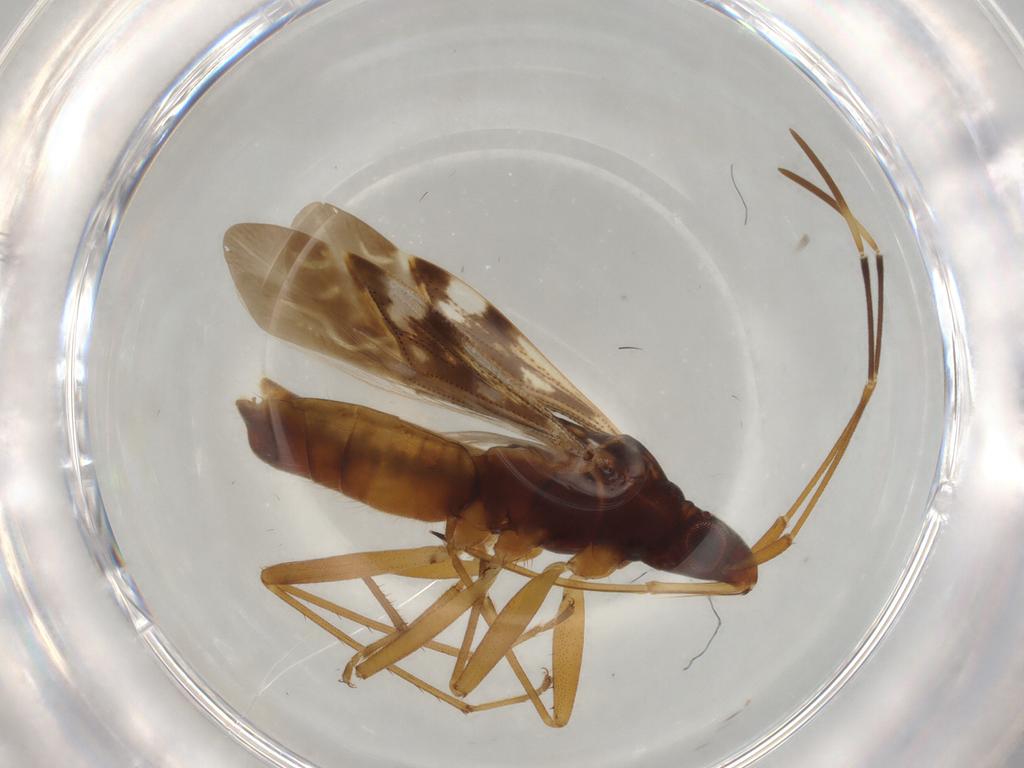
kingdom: Animalia
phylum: Arthropoda
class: Insecta
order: Hemiptera
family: Rhyparochromidae
